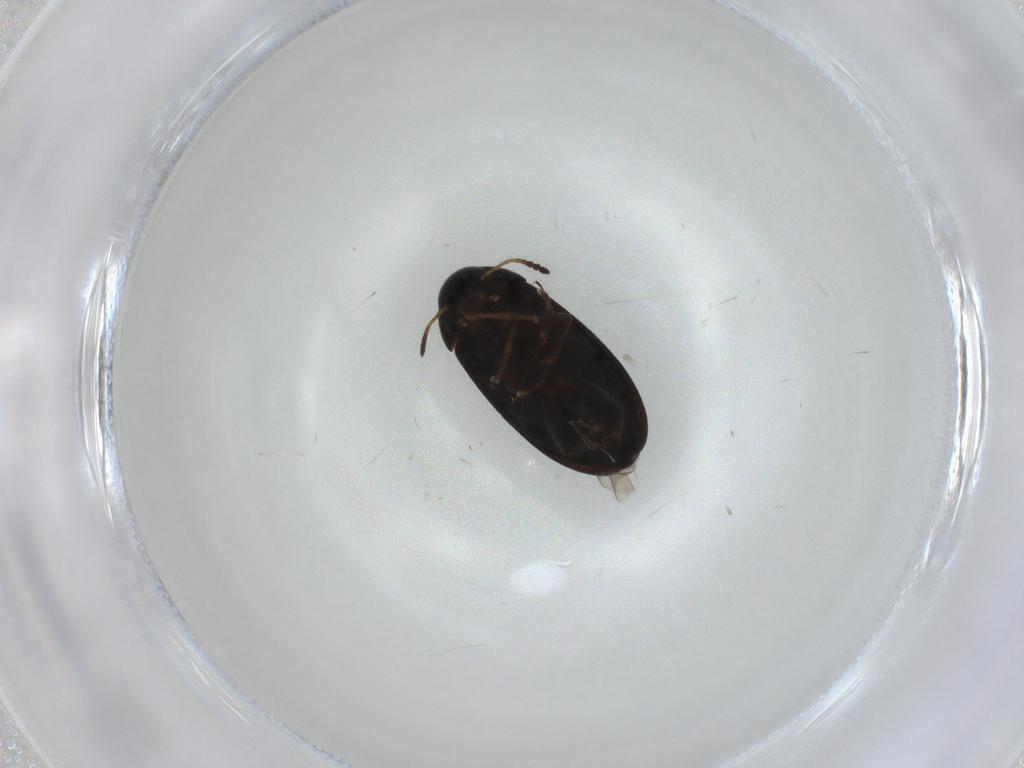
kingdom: Animalia
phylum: Arthropoda
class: Insecta
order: Coleoptera
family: Scraptiidae
